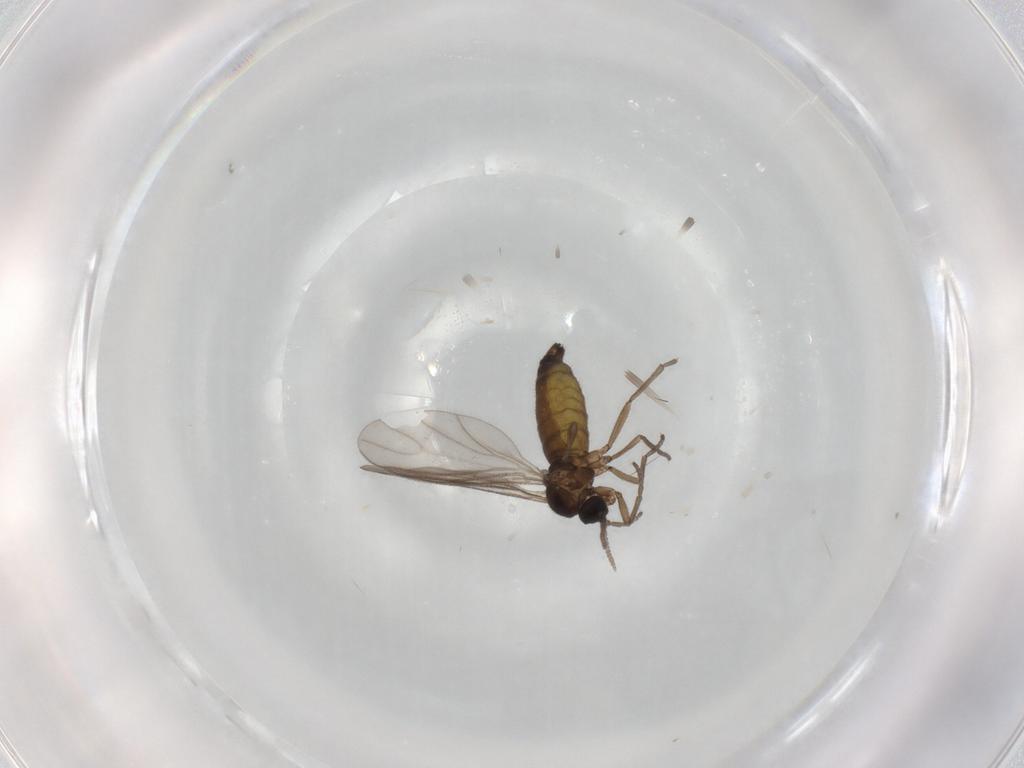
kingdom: Animalia
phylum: Arthropoda
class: Insecta
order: Diptera
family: Sciaridae
